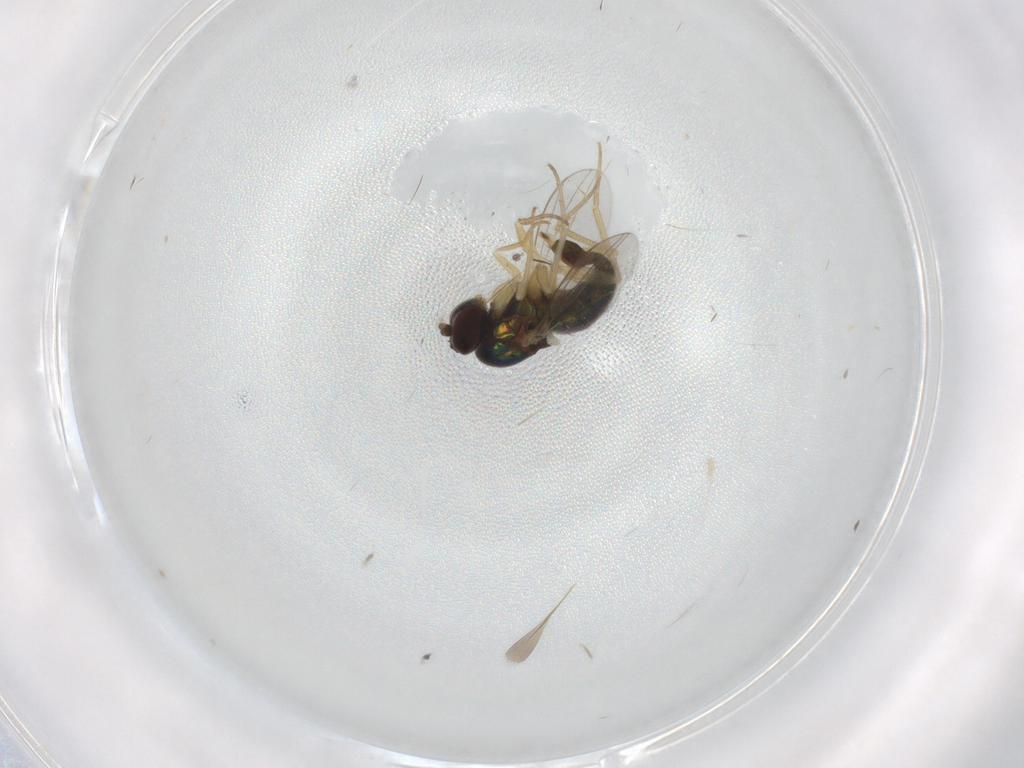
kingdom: Animalia
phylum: Arthropoda
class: Insecta
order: Diptera
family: Dolichopodidae
